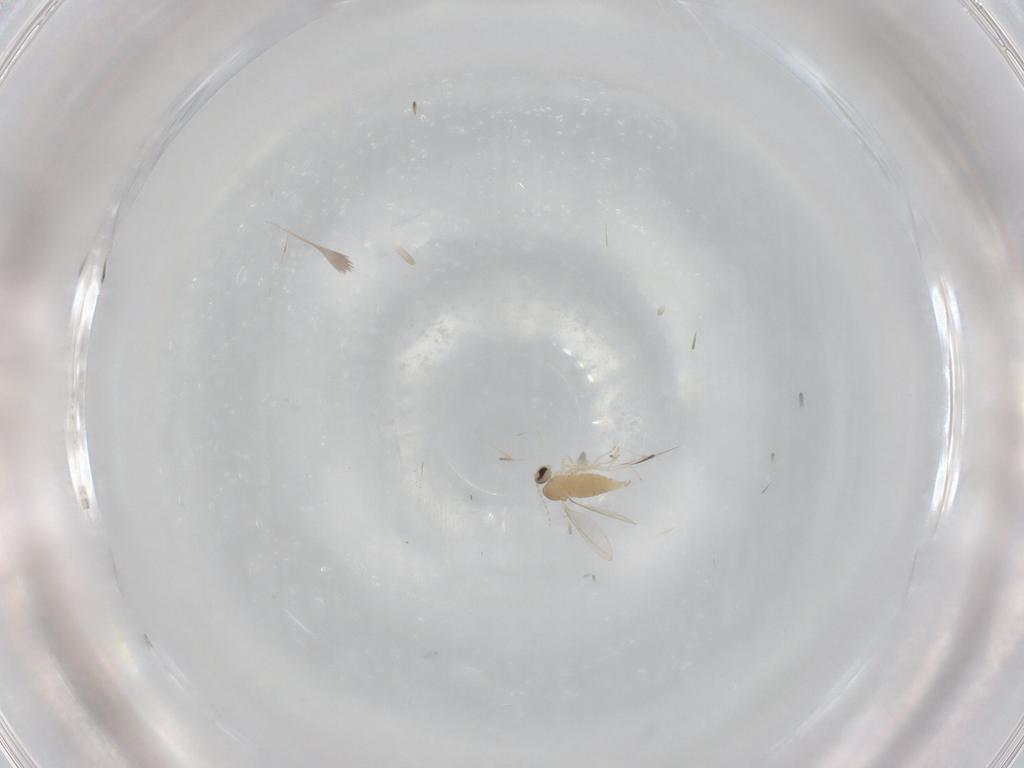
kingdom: Animalia
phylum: Arthropoda
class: Insecta
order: Diptera
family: Cecidomyiidae
